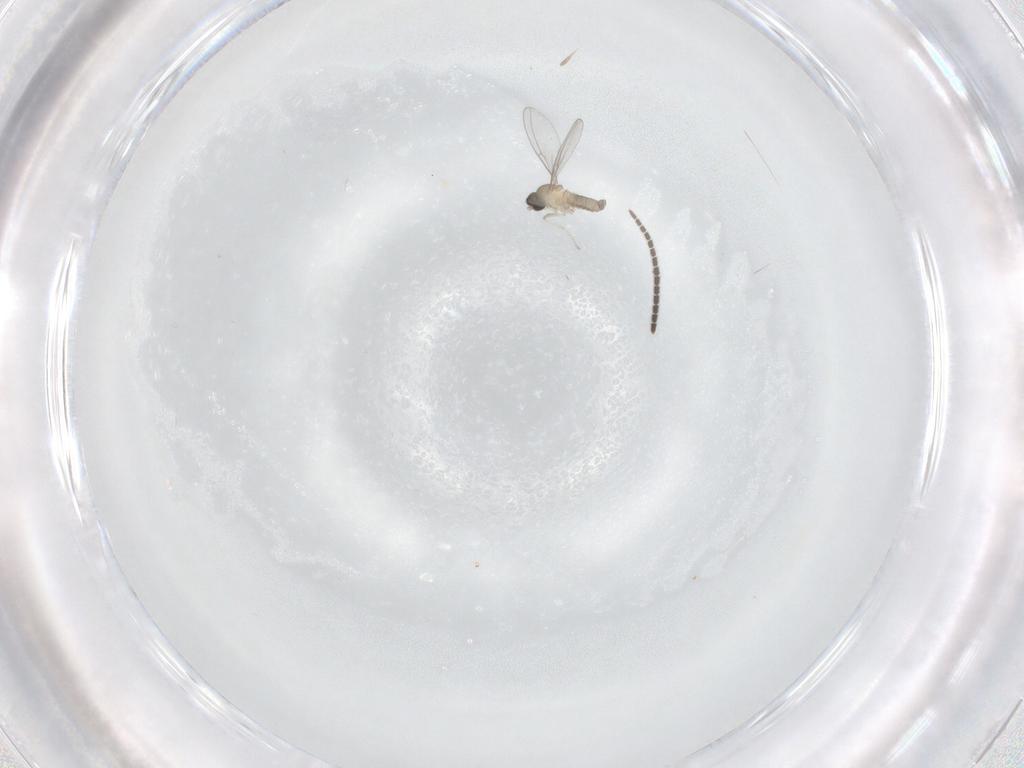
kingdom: Animalia
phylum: Arthropoda
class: Insecta
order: Diptera
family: Cecidomyiidae
